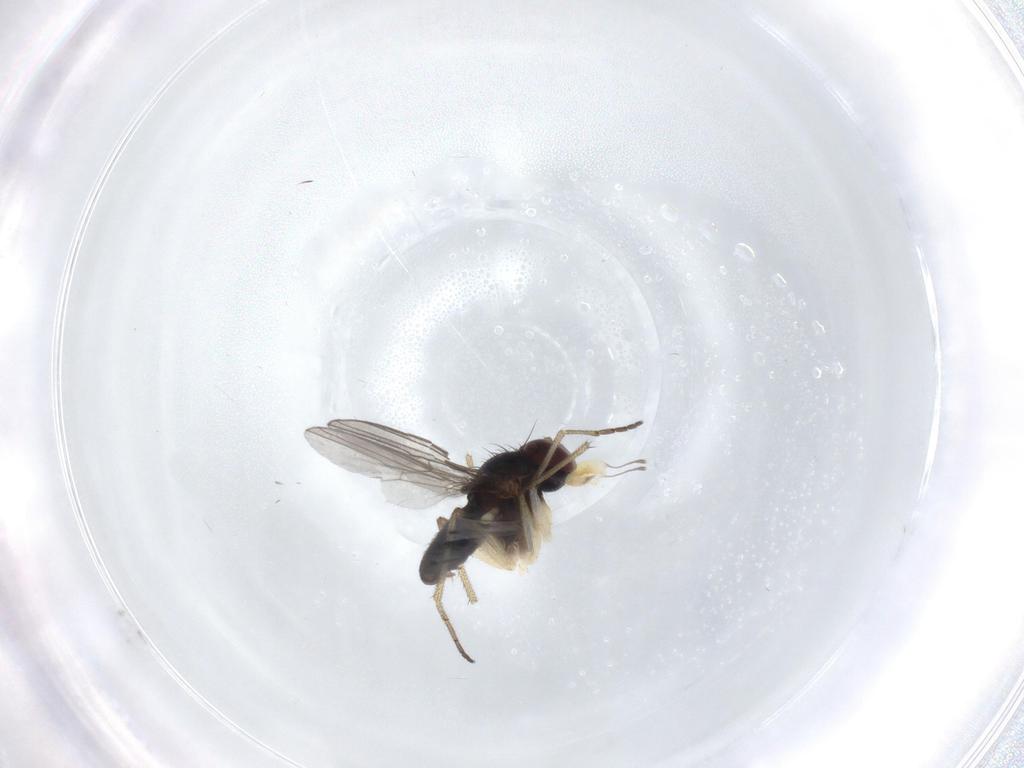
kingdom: Animalia
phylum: Arthropoda
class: Insecta
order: Diptera
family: Dolichopodidae
